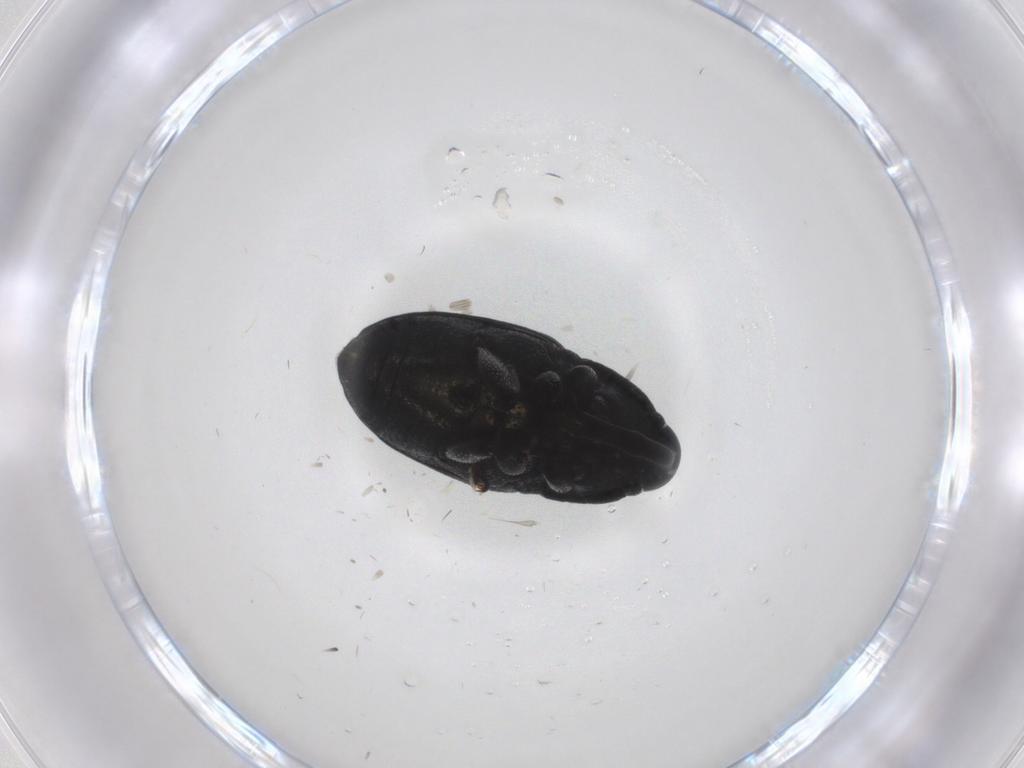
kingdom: Animalia
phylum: Arthropoda
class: Insecta
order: Coleoptera
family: Curculionidae
